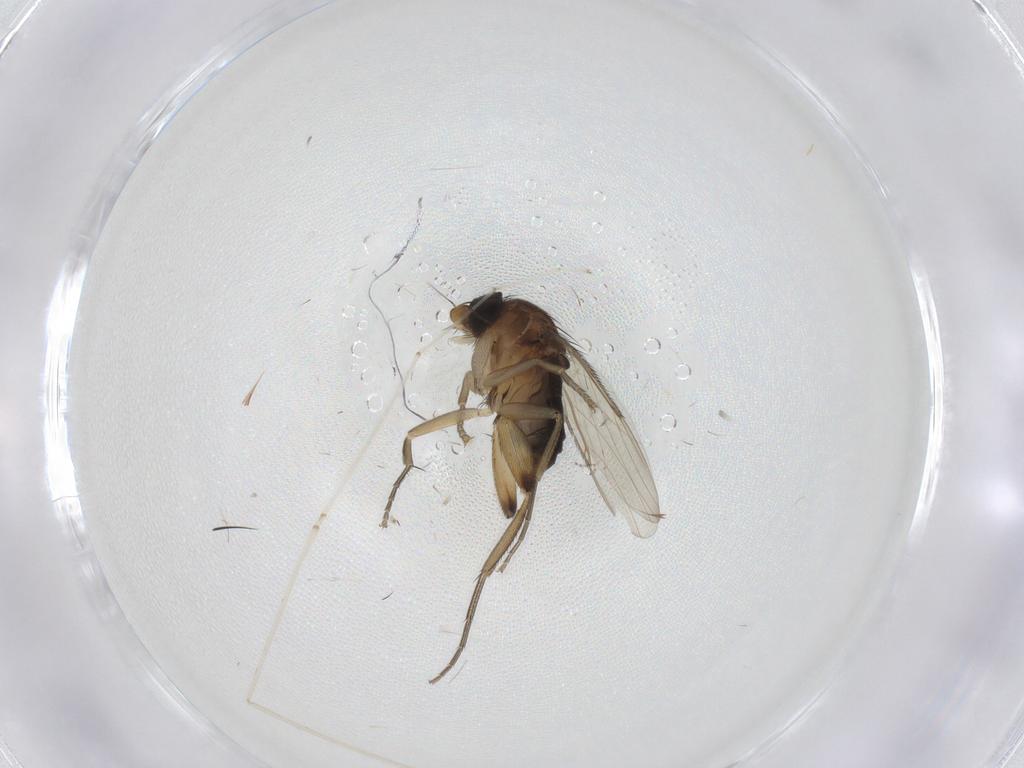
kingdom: Animalia
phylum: Arthropoda
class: Insecta
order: Diptera
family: Phoridae
